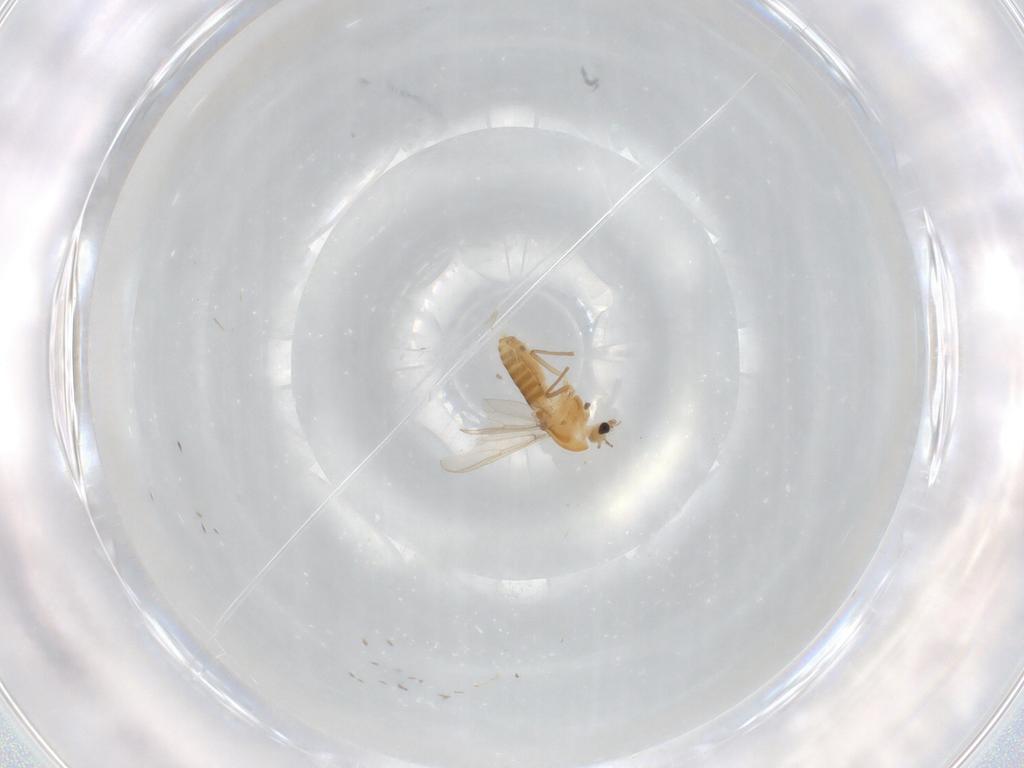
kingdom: Animalia
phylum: Arthropoda
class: Insecta
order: Diptera
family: Chironomidae
